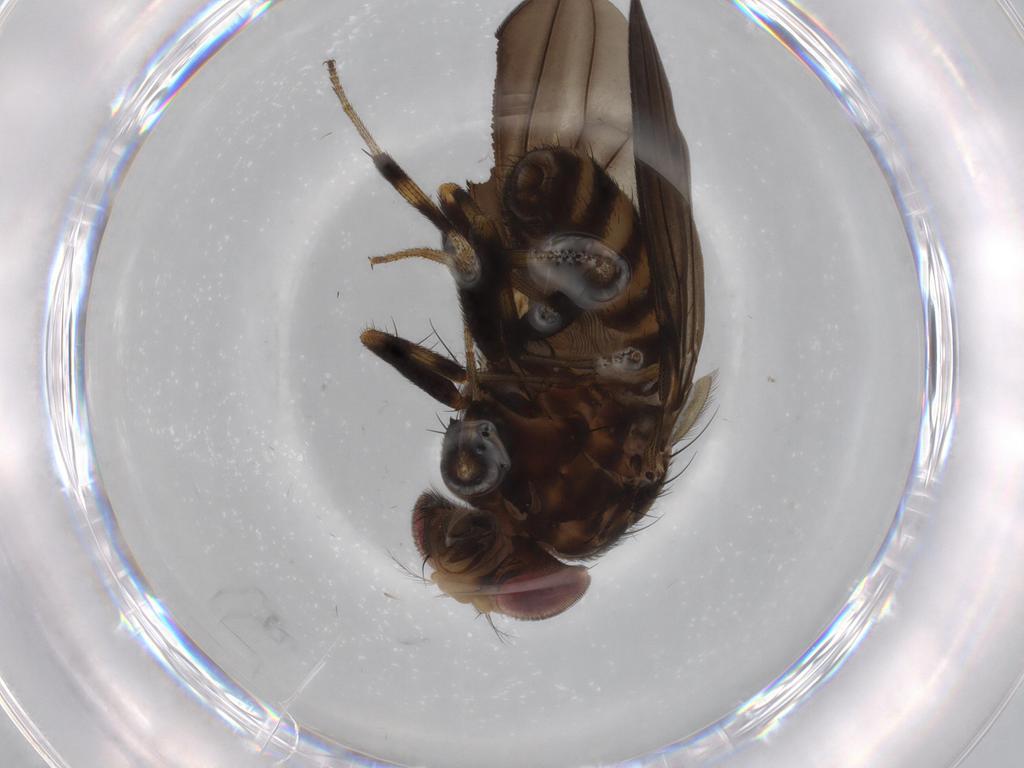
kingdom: Animalia
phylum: Arthropoda
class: Insecta
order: Diptera
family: Drosophilidae
